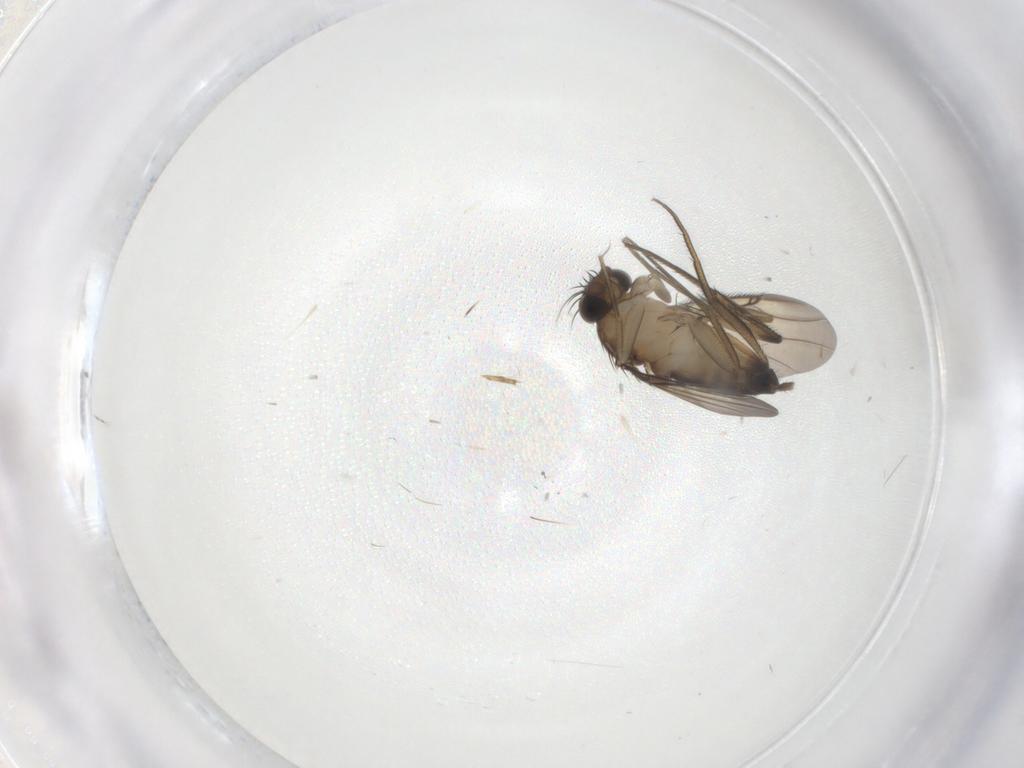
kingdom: Animalia
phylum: Arthropoda
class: Insecta
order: Diptera
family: Phoridae
